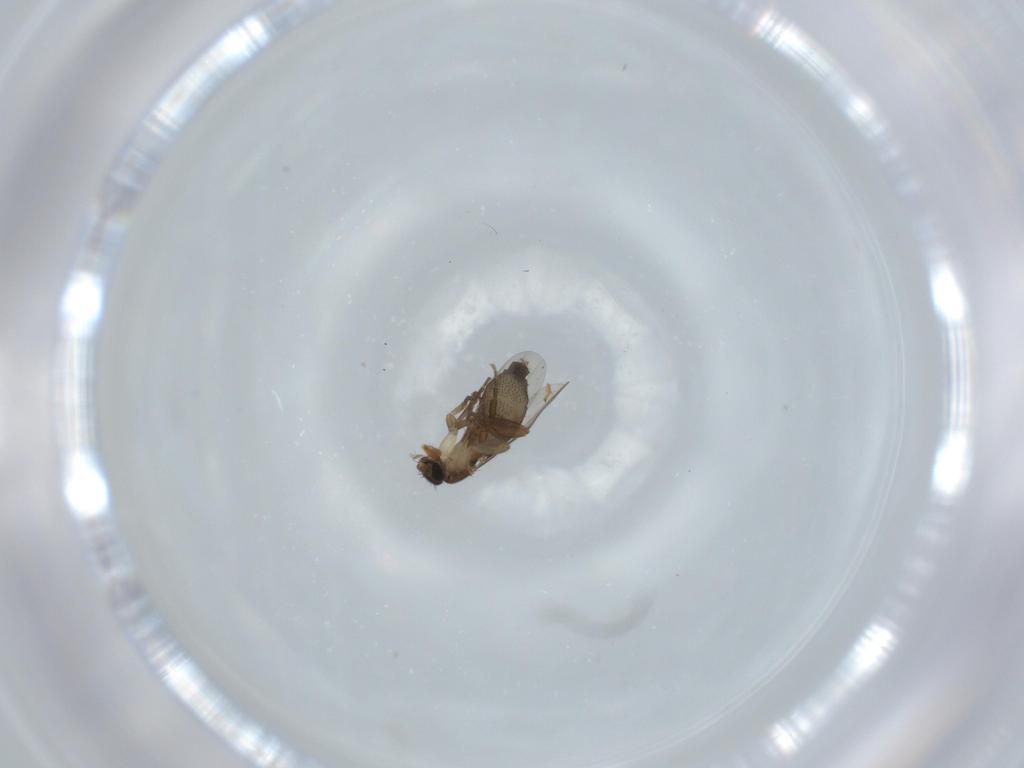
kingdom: Animalia
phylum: Arthropoda
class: Insecta
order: Diptera
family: Phoridae
